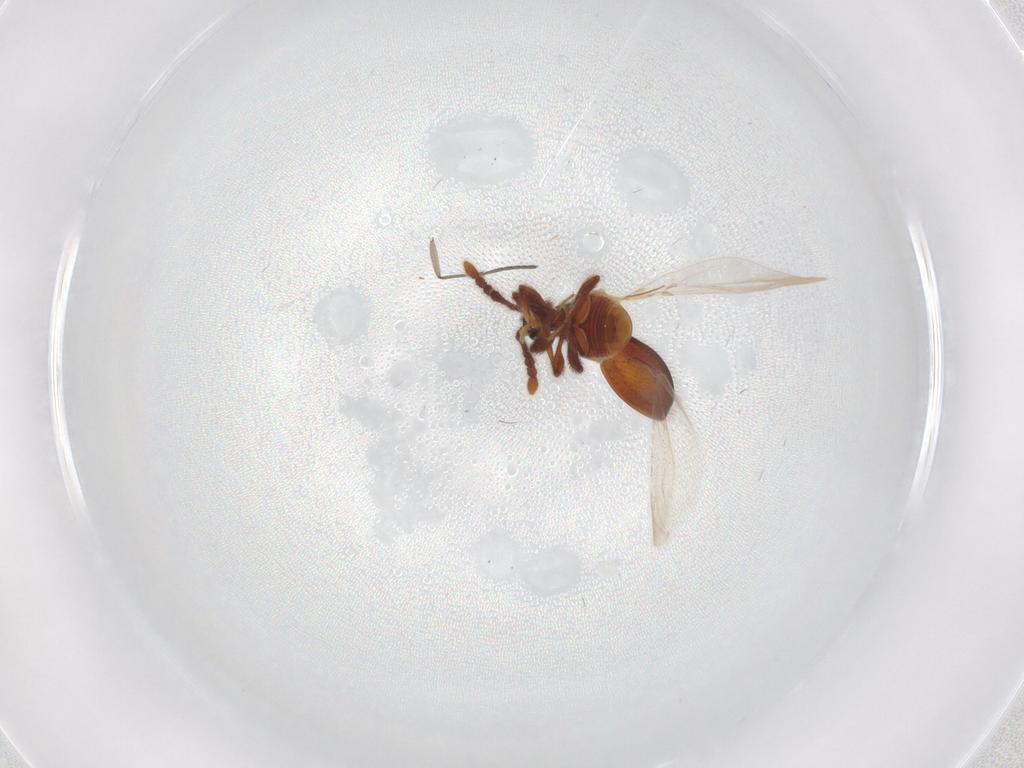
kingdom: Animalia
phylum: Arthropoda
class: Insecta
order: Coleoptera
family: Staphylinidae
